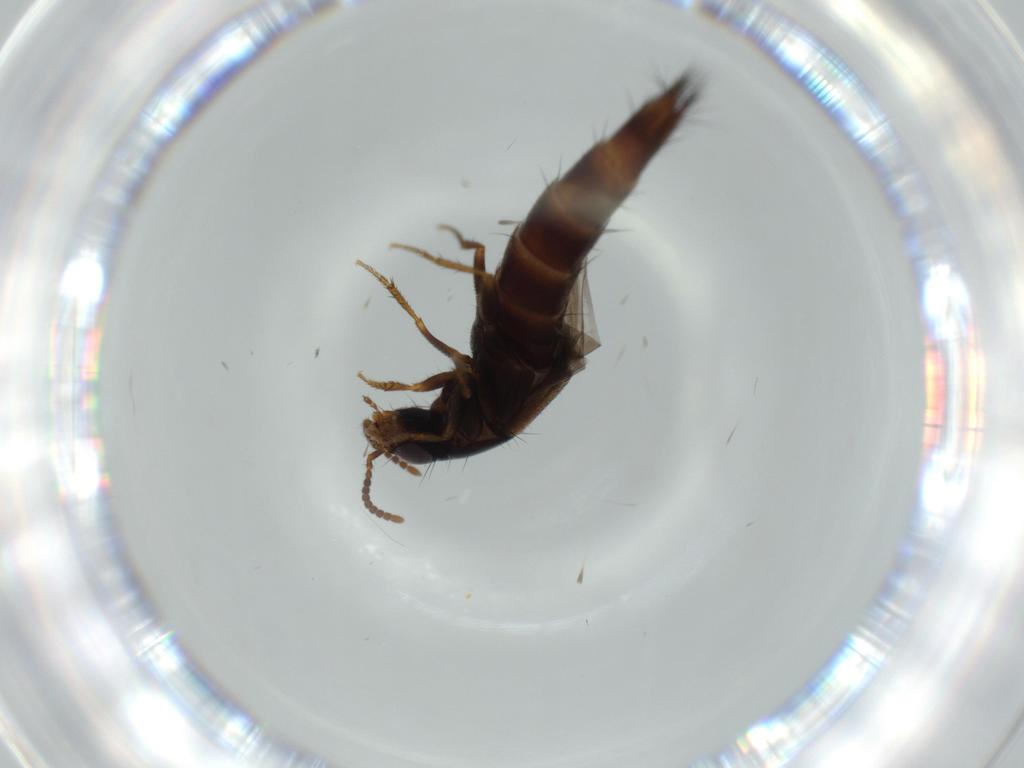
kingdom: Animalia
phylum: Arthropoda
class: Insecta
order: Coleoptera
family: Staphylinidae
